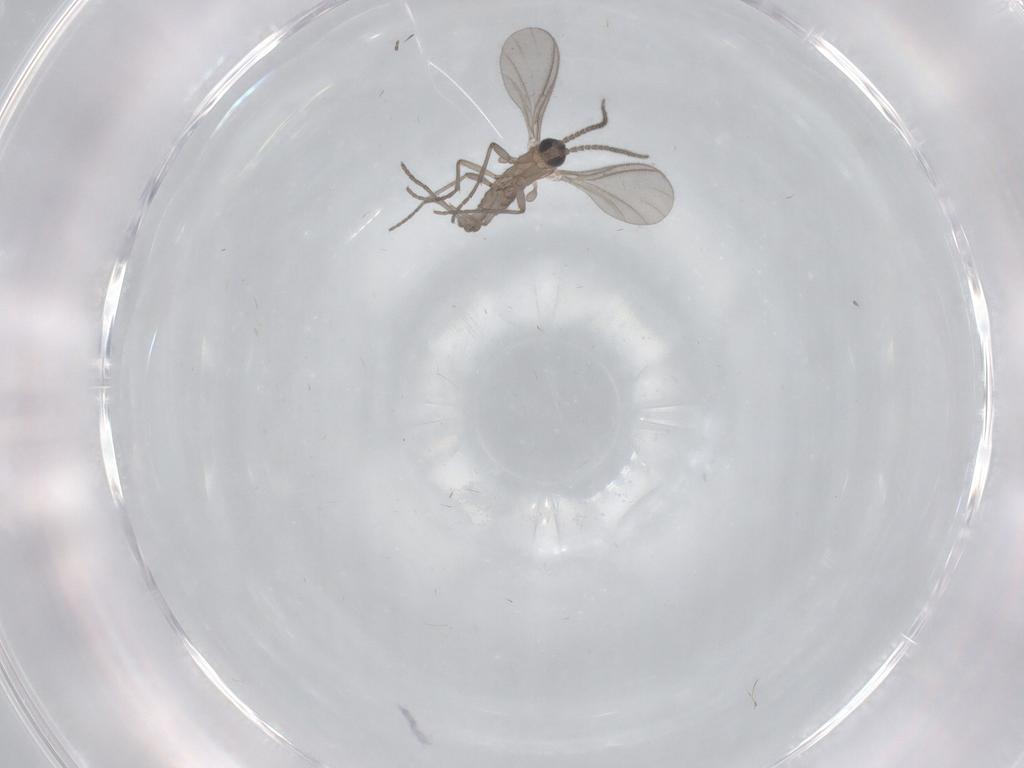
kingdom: Animalia
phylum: Arthropoda
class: Insecta
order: Diptera
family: Sciaridae
